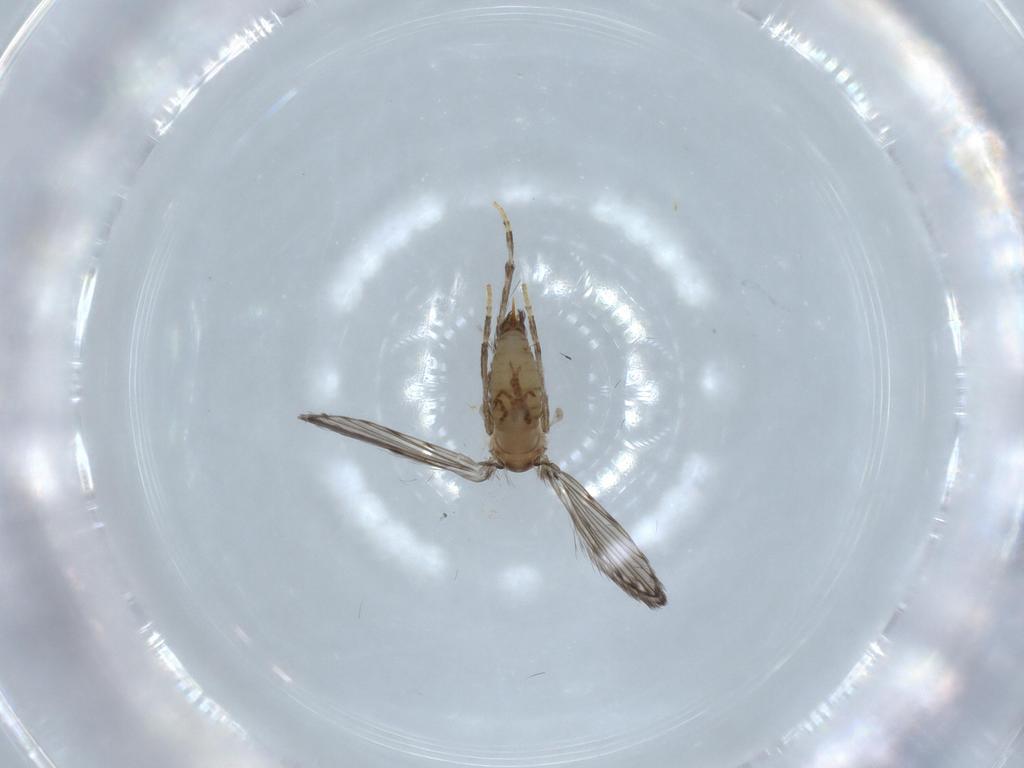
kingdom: Animalia
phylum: Arthropoda
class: Insecta
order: Diptera
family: Psychodidae
